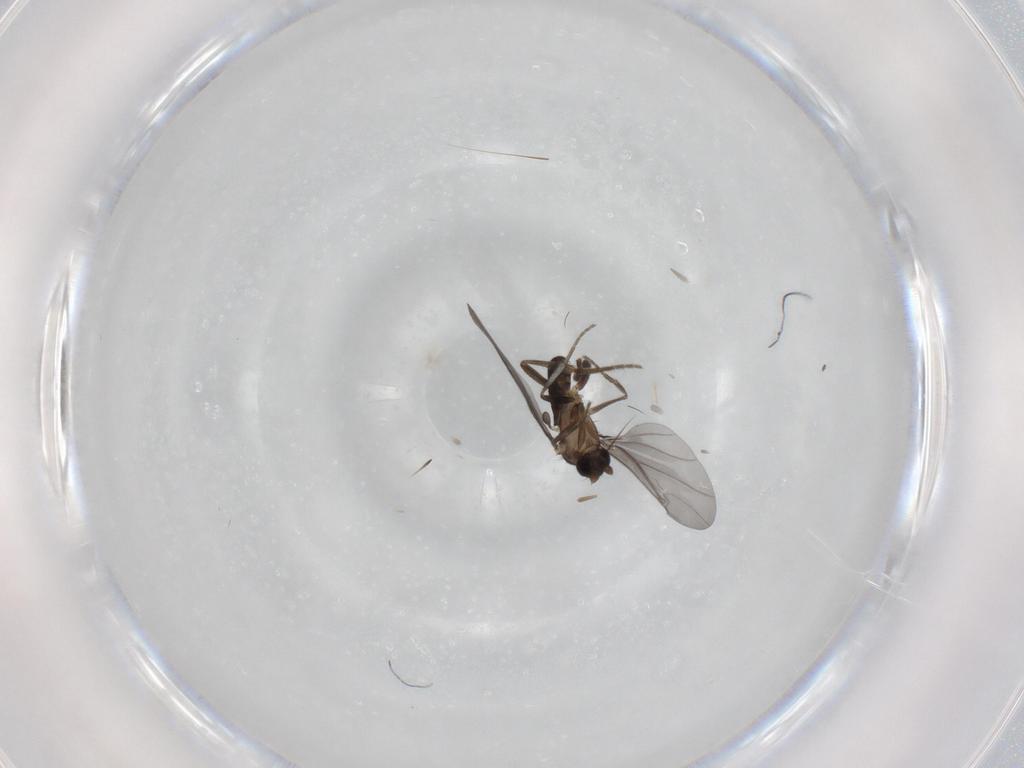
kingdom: Animalia
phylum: Arthropoda
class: Insecta
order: Diptera
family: Phoridae
